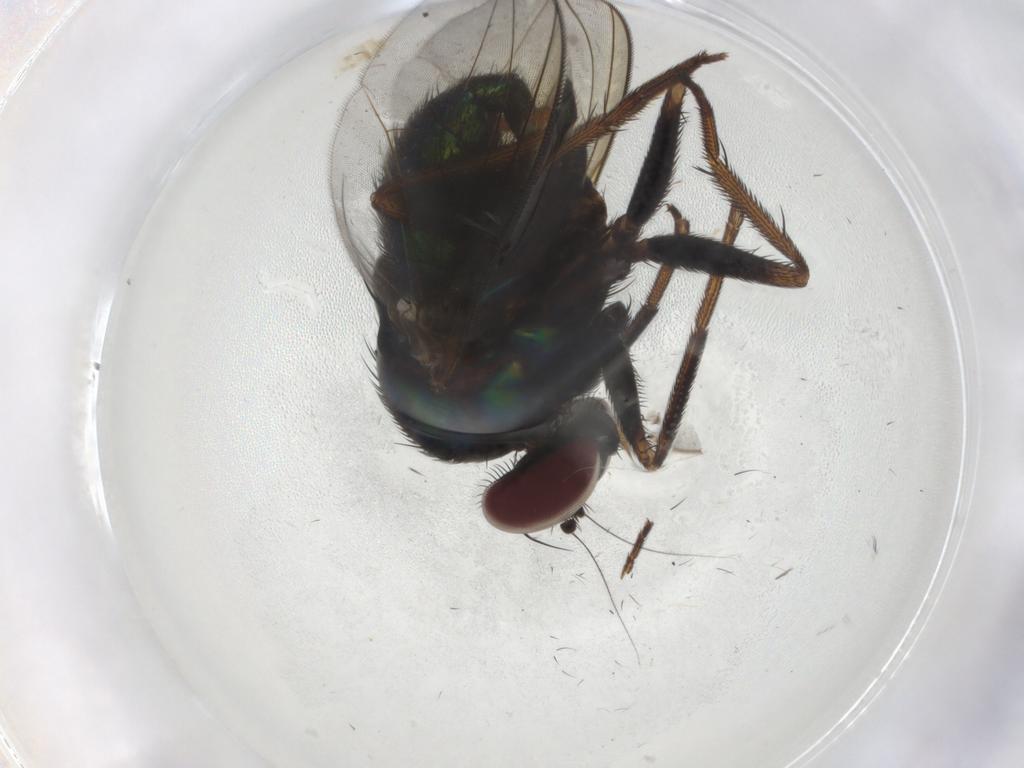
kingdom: Animalia
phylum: Arthropoda
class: Insecta
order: Diptera
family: Dolichopodidae
